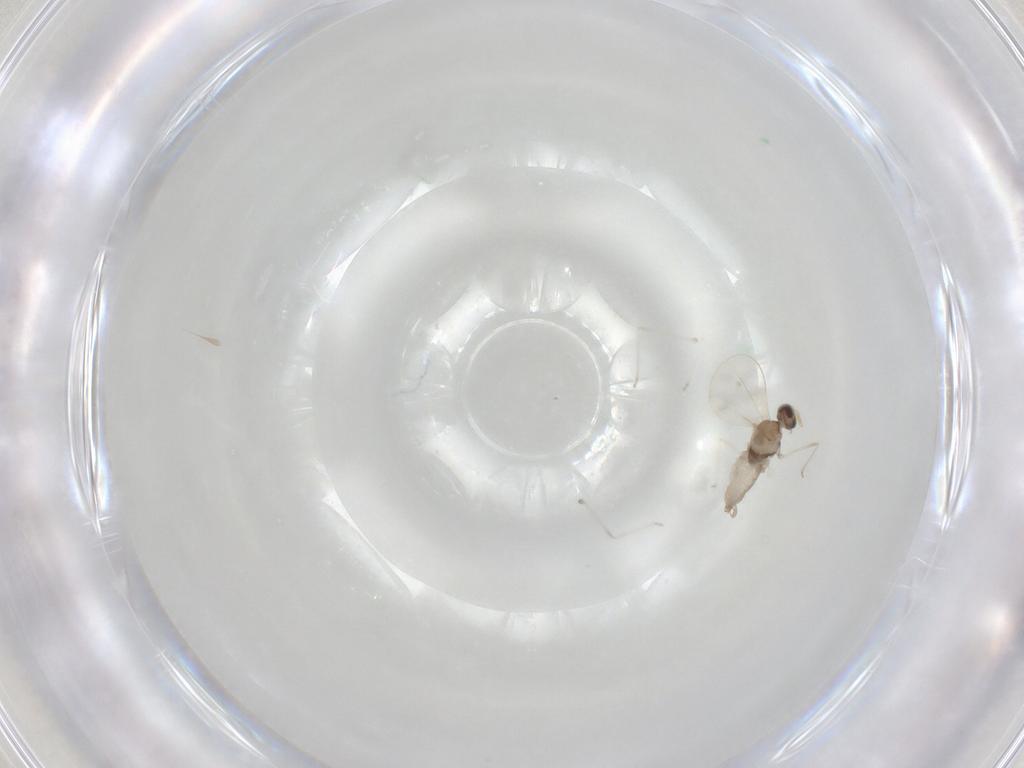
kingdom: Animalia
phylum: Arthropoda
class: Insecta
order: Diptera
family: Cecidomyiidae
